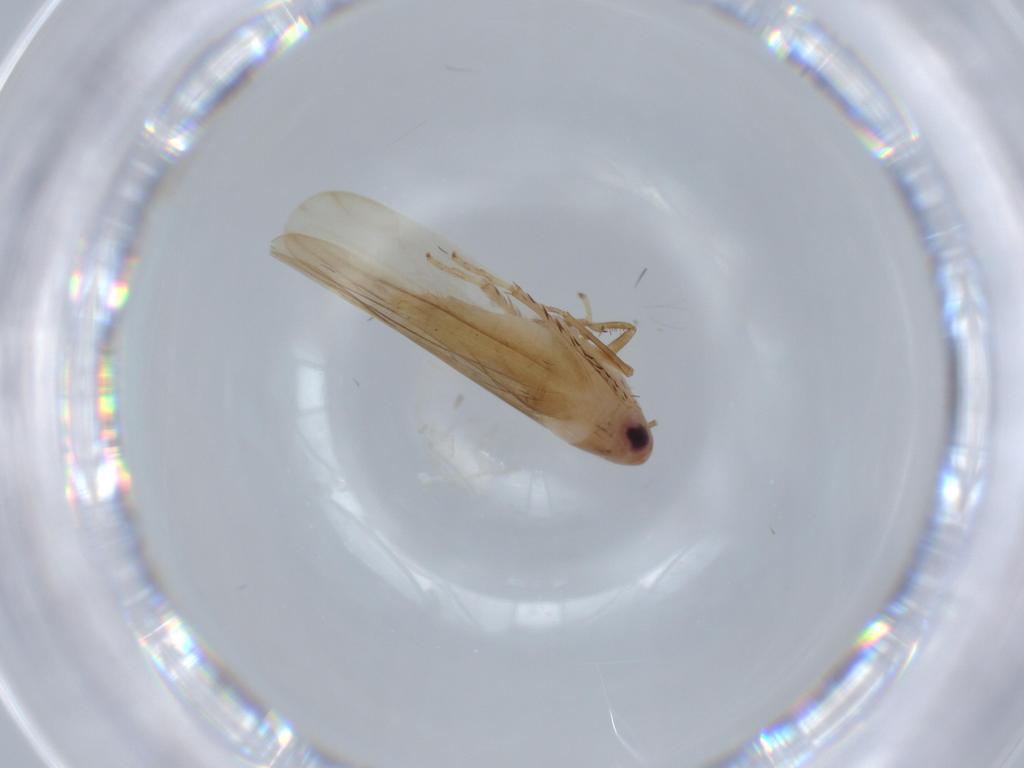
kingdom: Animalia
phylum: Arthropoda
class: Insecta
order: Hemiptera
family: Cicadellidae
